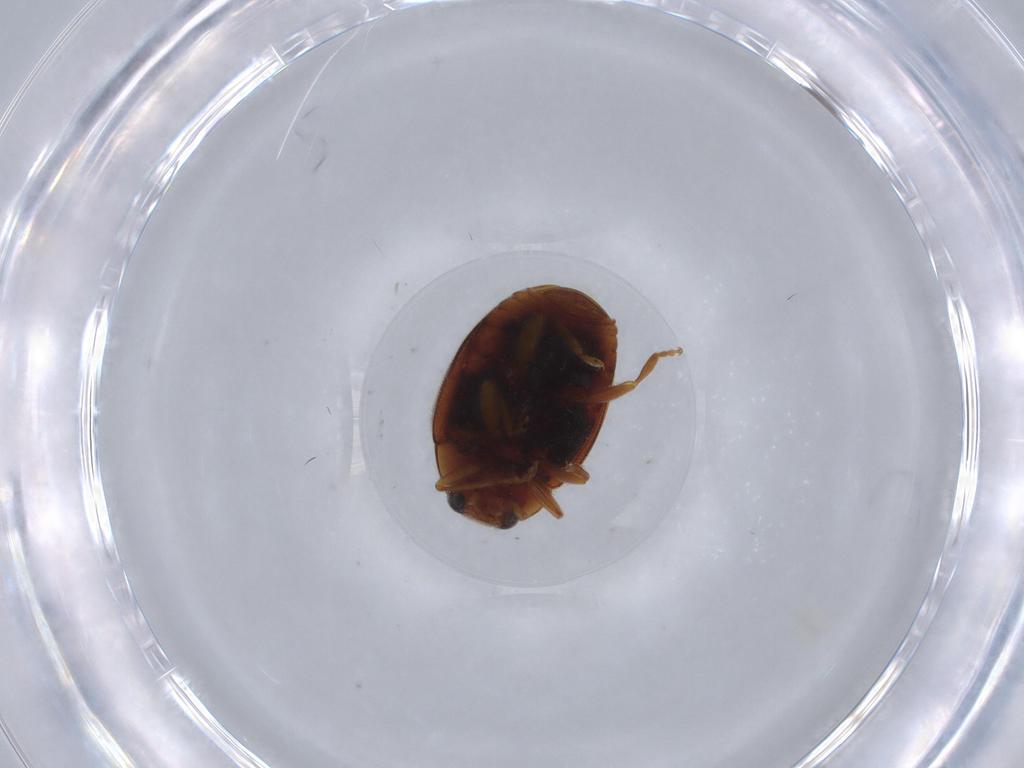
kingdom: Animalia
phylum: Arthropoda
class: Insecta
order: Coleoptera
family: Coccinellidae
